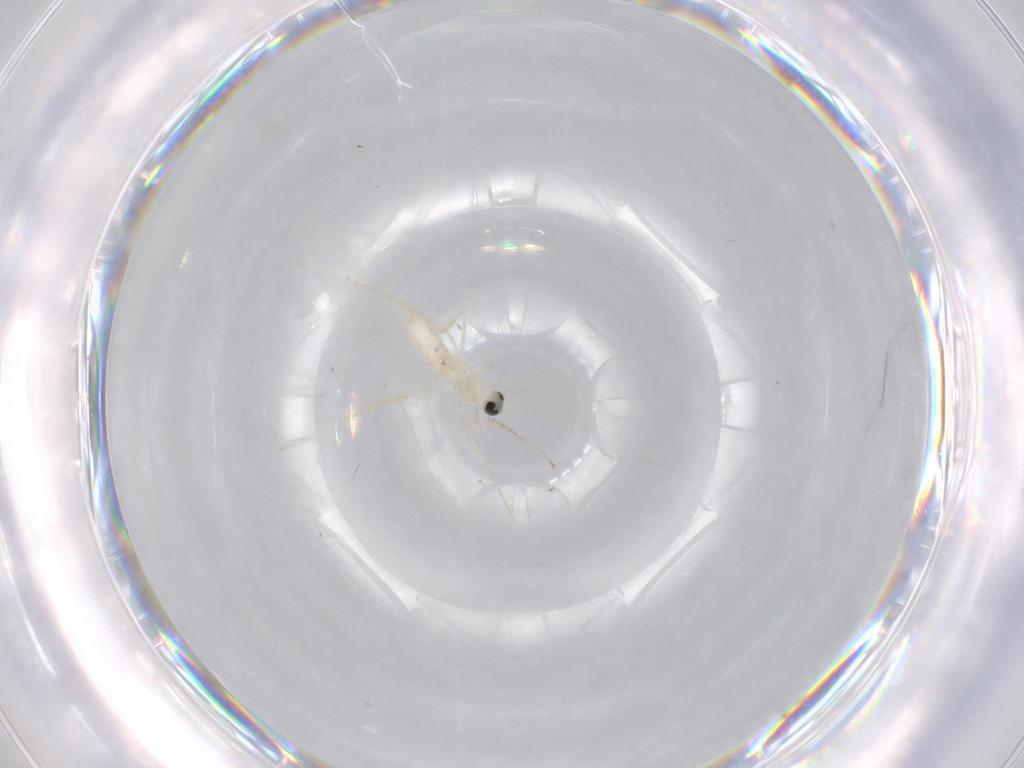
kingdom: Animalia
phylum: Arthropoda
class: Insecta
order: Diptera
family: Cecidomyiidae
